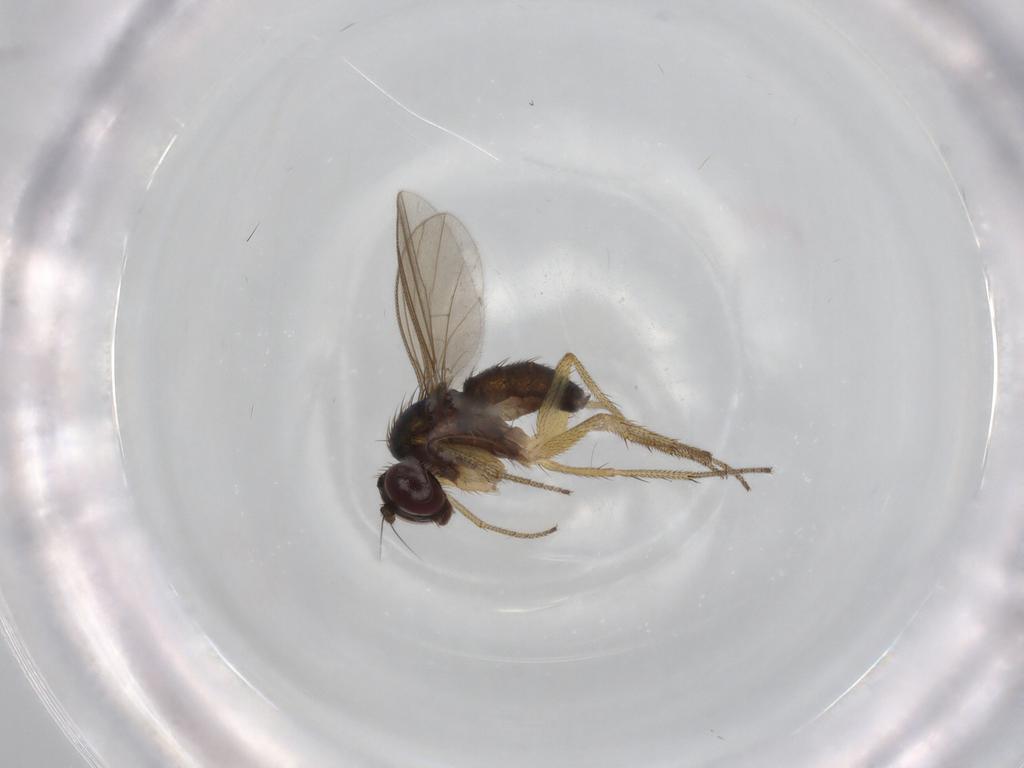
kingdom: Animalia
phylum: Arthropoda
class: Insecta
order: Diptera
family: Dolichopodidae
